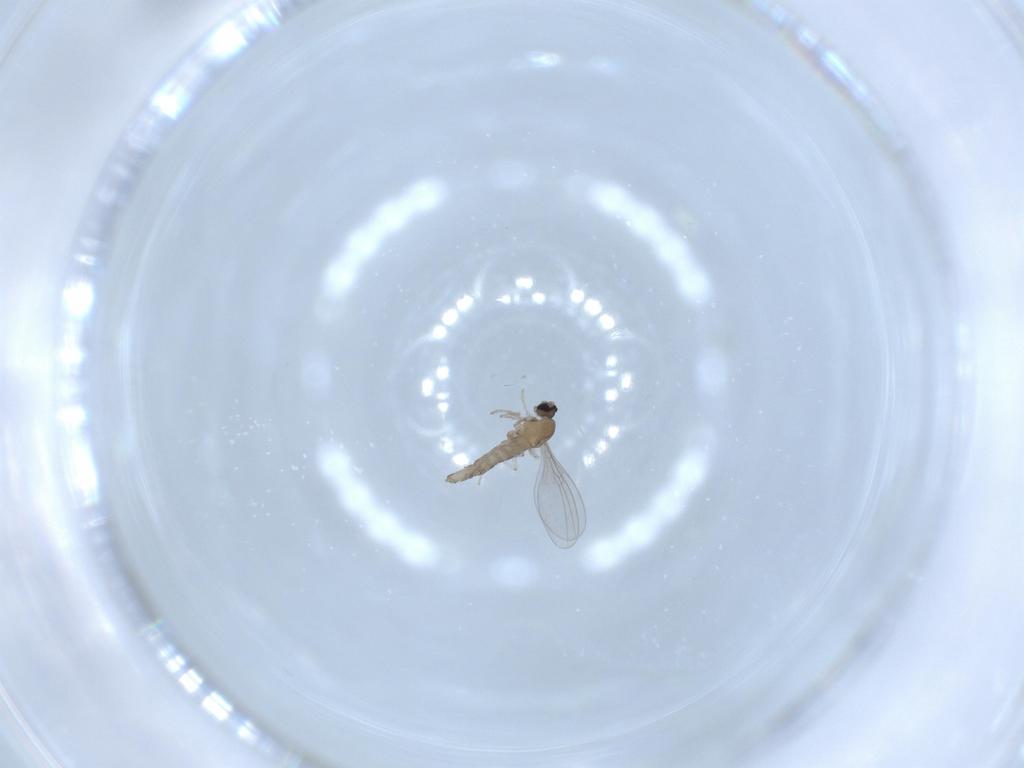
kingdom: Animalia
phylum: Arthropoda
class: Insecta
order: Diptera
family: Cecidomyiidae
